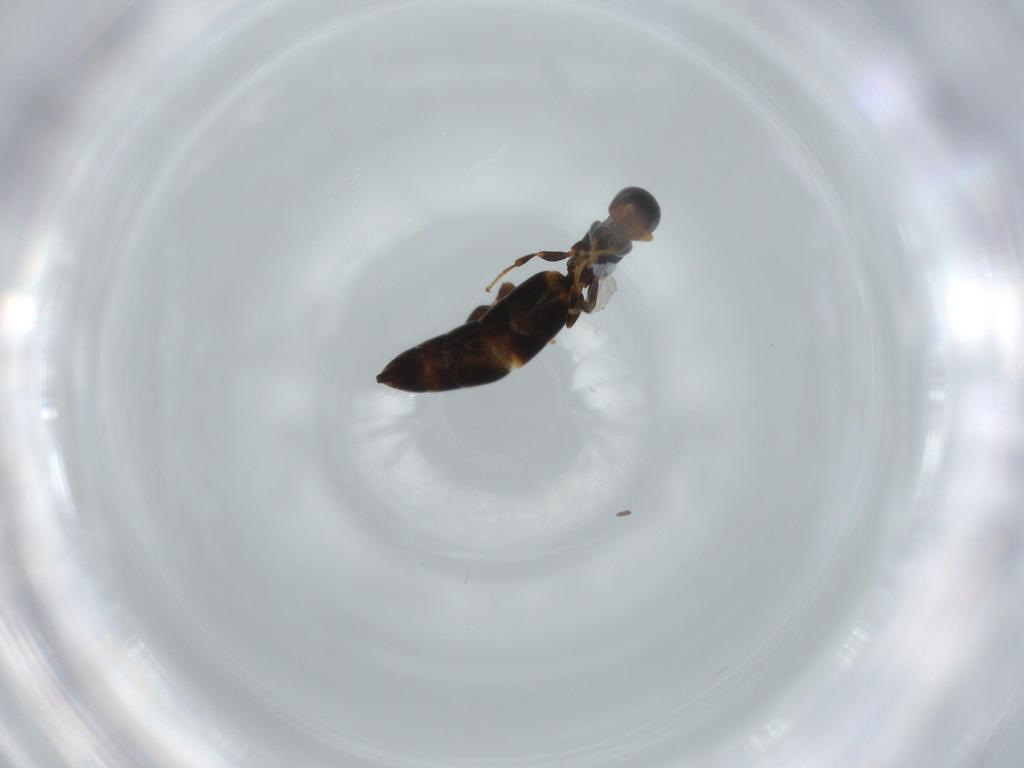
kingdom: Animalia
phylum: Arthropoda
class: Insecta
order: Hymenoptera
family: Bethylidae
